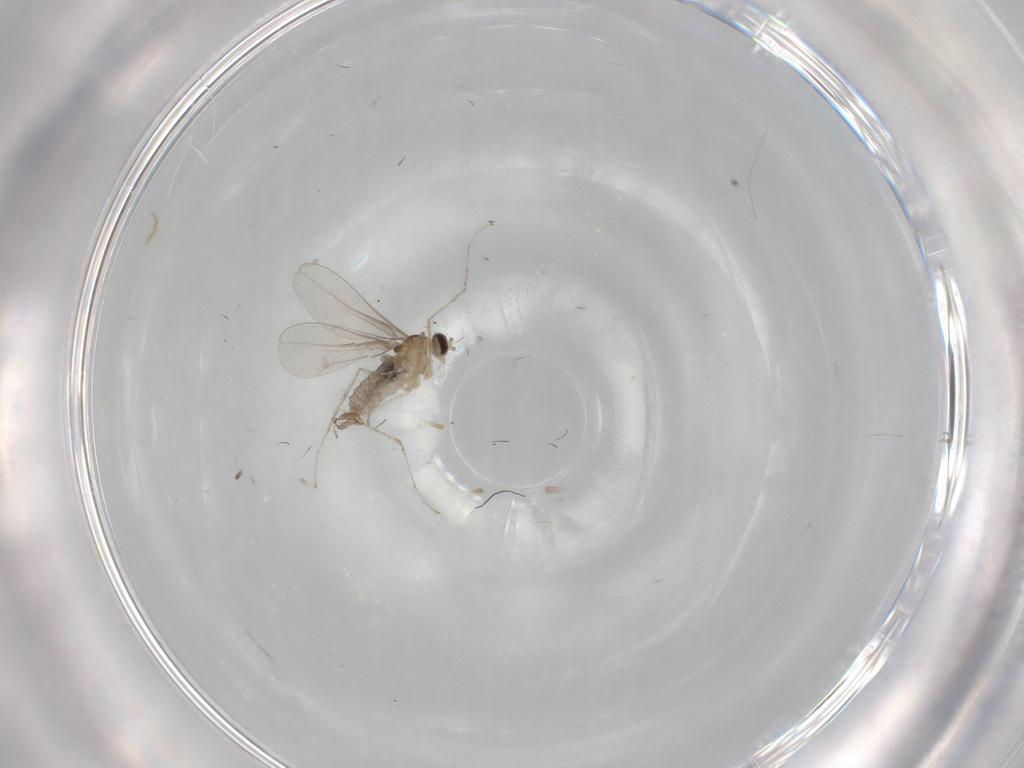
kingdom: Animalia
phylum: Arthropoda
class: Insecta
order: Diptera
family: Cecidomyiidae
